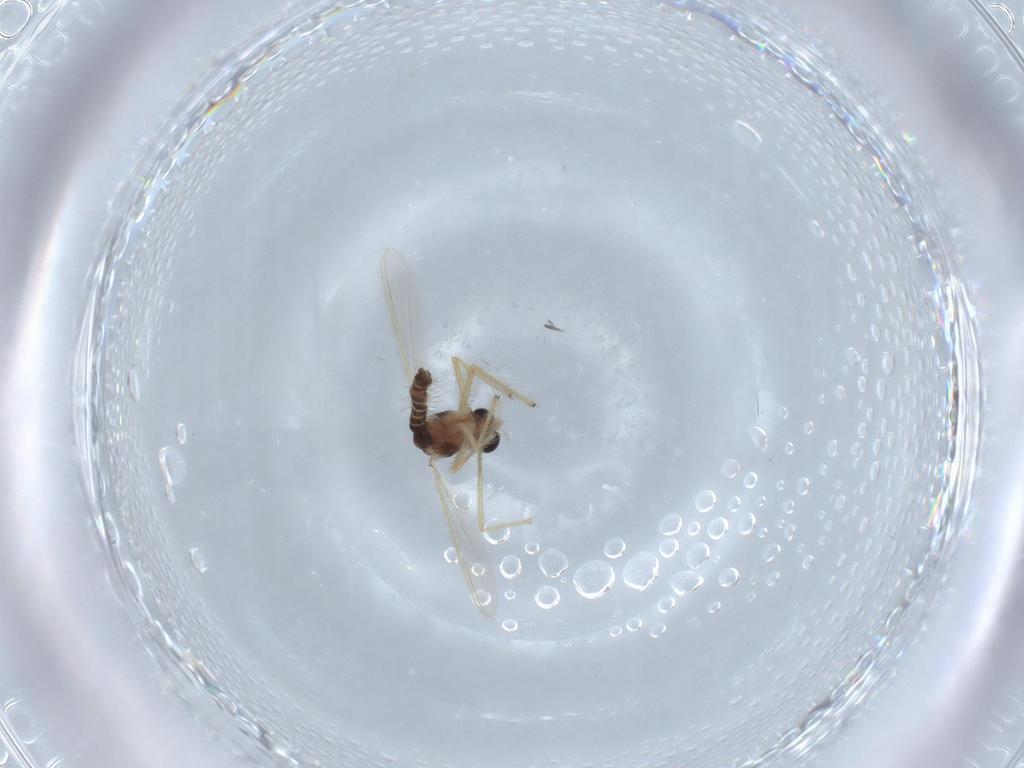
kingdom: Animalia
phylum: Arthropoda
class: Insecta
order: Diptera
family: Chironomidae
